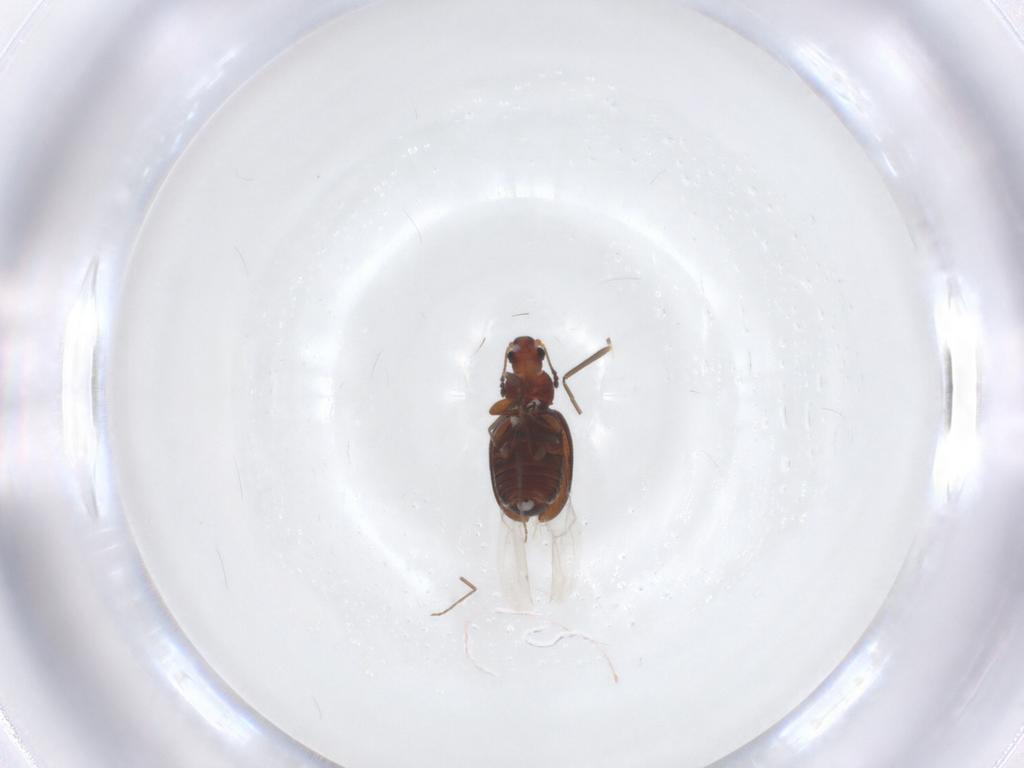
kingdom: Animalia
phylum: Arthropoda
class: Insecta
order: Coleoptera
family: Latridiidae
